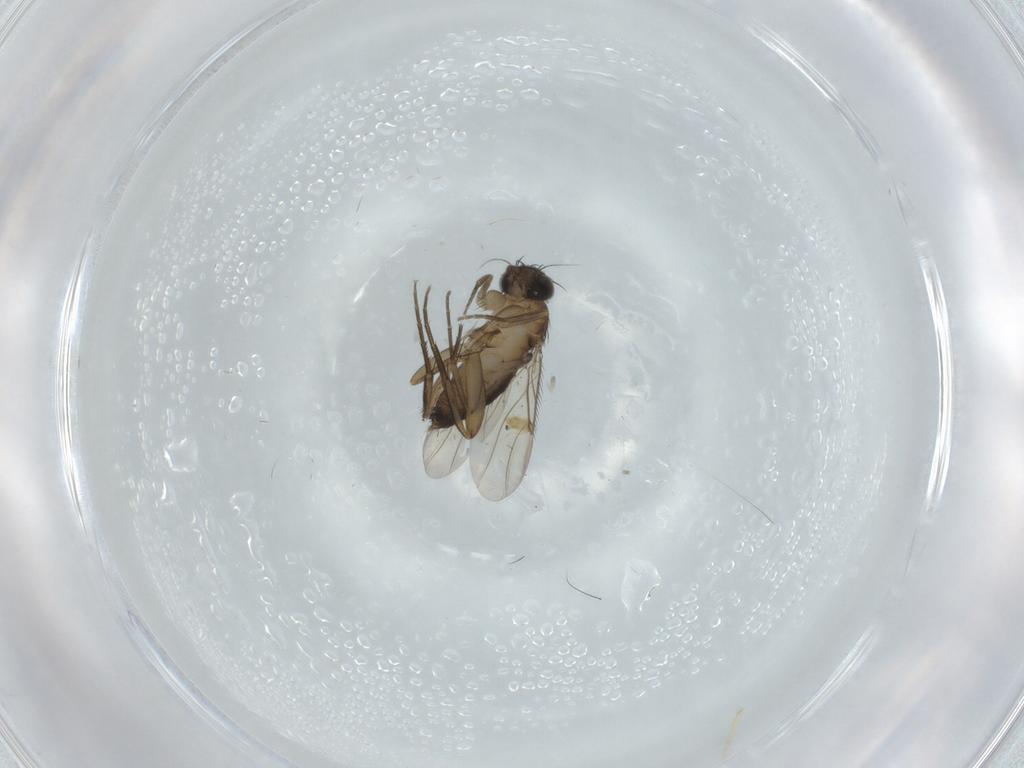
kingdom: Animalia
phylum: Arthropoda
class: Insecta
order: Diptera
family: Phoridae
